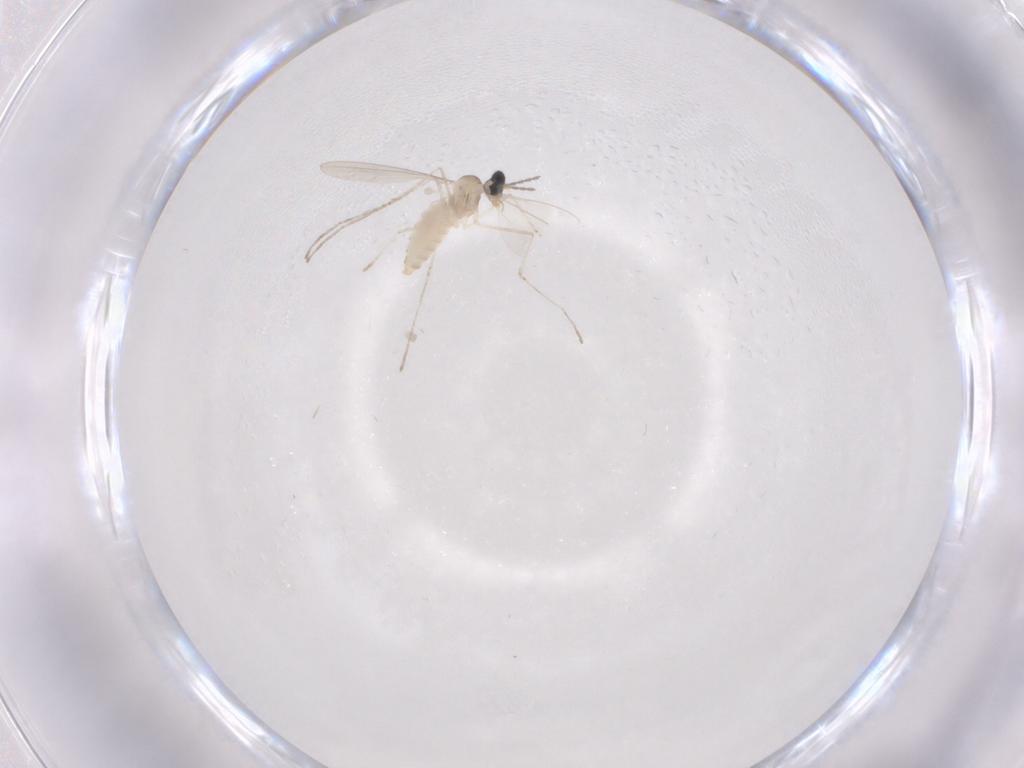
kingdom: Animalia
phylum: Arthropoda
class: Insecta
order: Diptera
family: Cecidomyiidae
